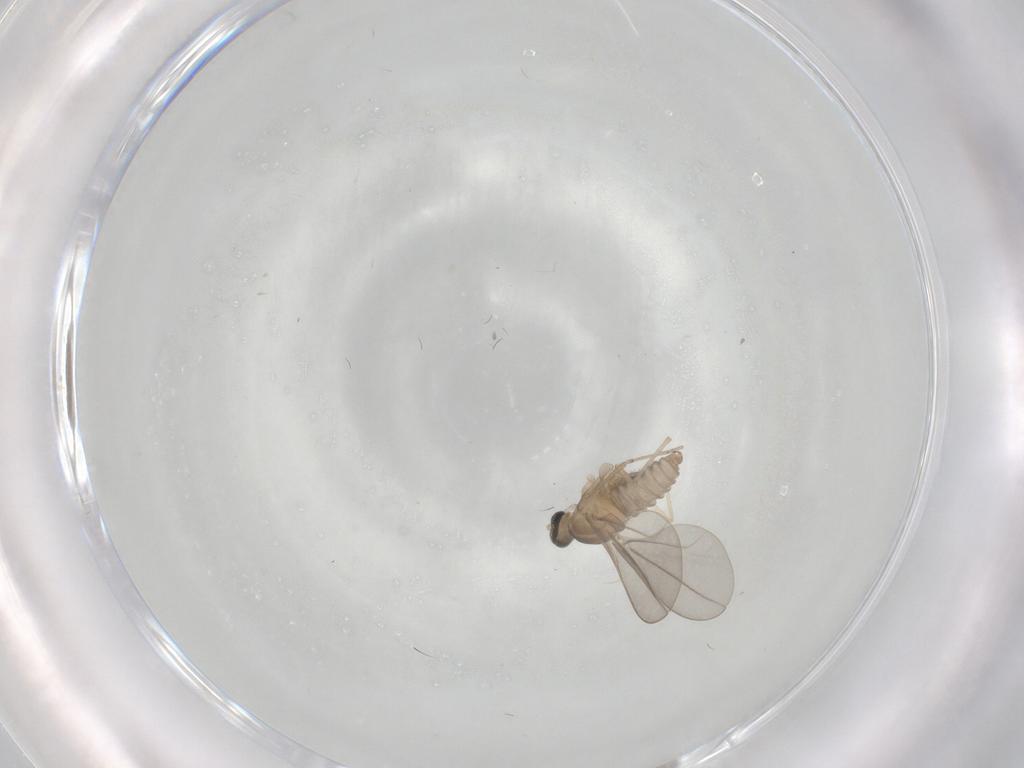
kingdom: Animalia
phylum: Arthropoda
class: Insecta
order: Diptera
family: Cecidomyiidae
